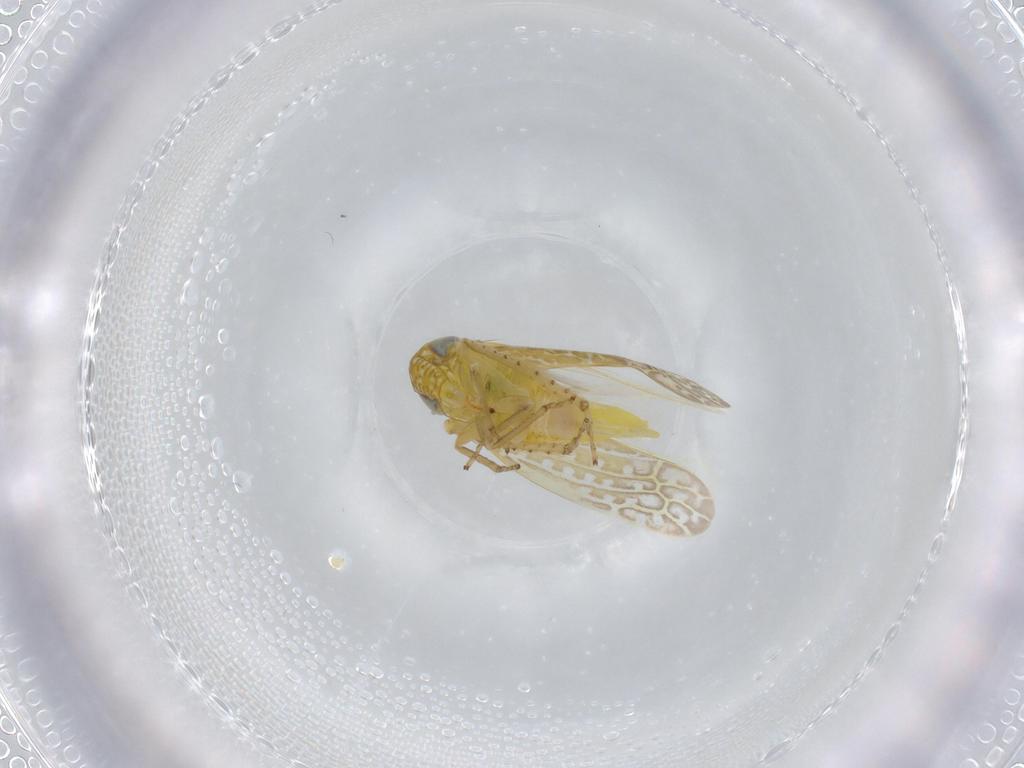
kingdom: Animalia
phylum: Arthropoda
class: Insecta
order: Hemiptera
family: Cicadellidae
